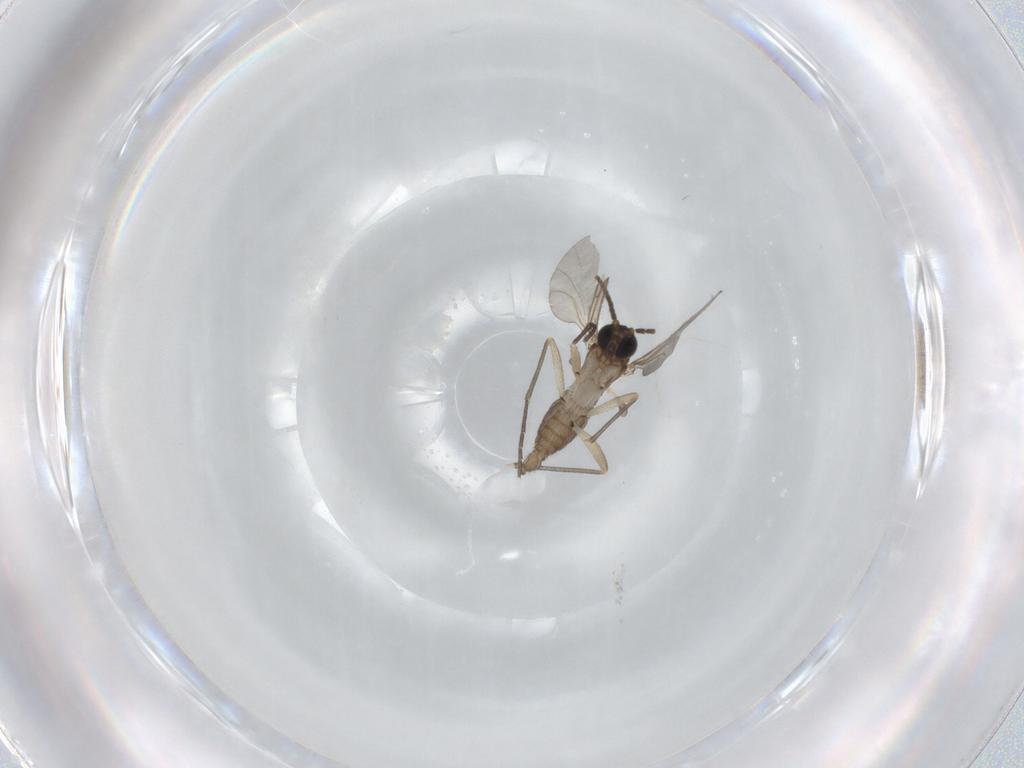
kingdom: Animalia
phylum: Arthropoda
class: Insecta
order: Diptera
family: Sciaridae
